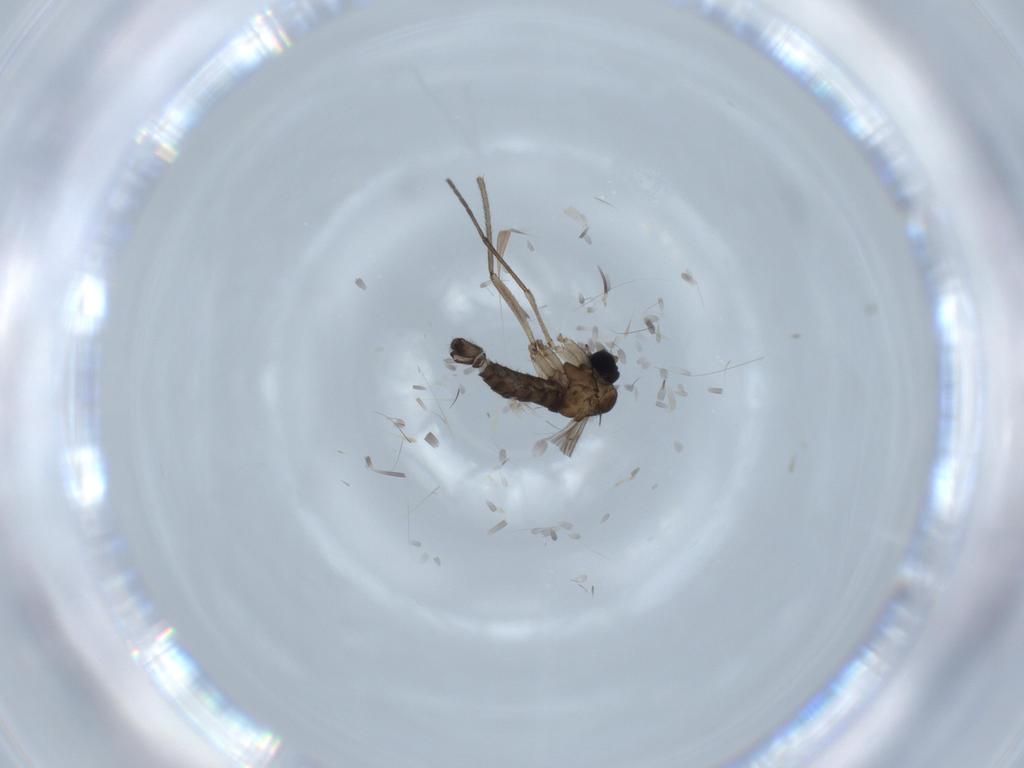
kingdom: Animalia
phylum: Arthropoda
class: Insecta
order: Diptera
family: Sciaridae
